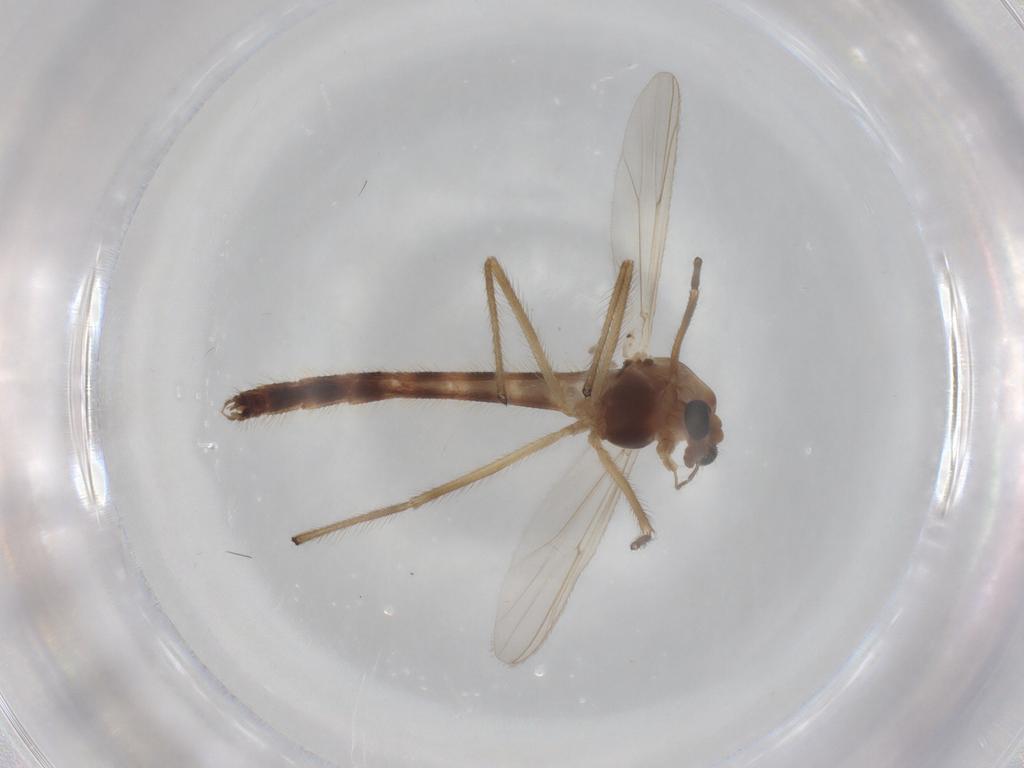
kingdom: Animalia
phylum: Arthropoda
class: Insecta
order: Diptera
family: Chironomidae
